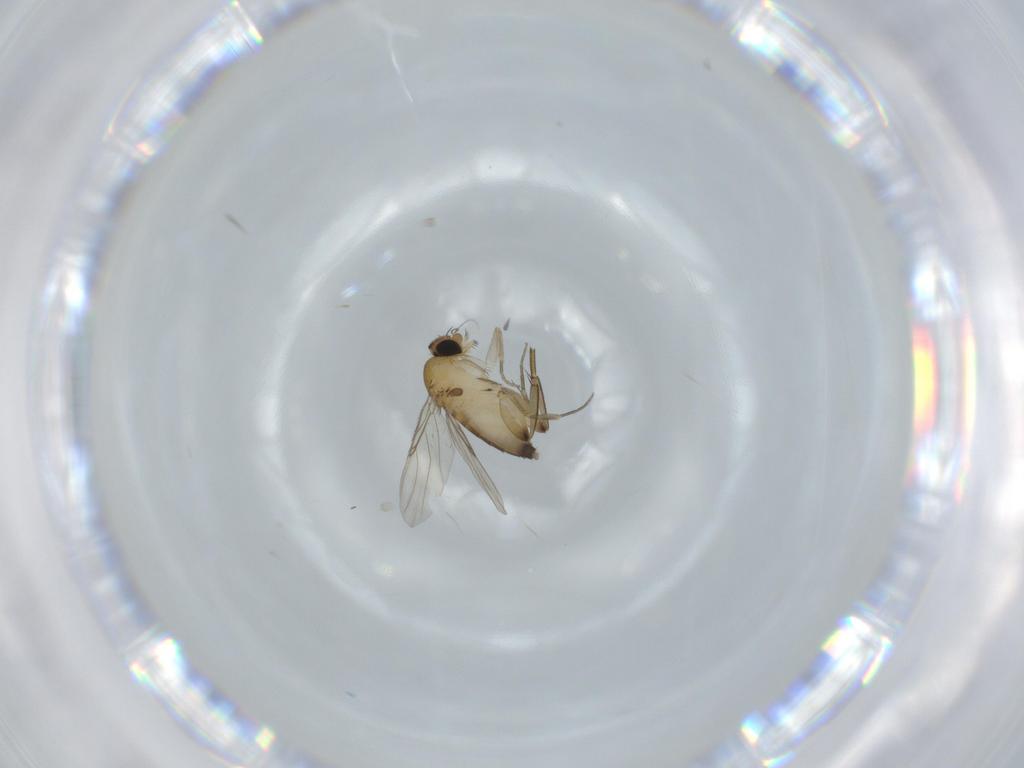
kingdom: Animalia
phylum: Arthropoda
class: Insecta
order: Diptera
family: Phoridae
